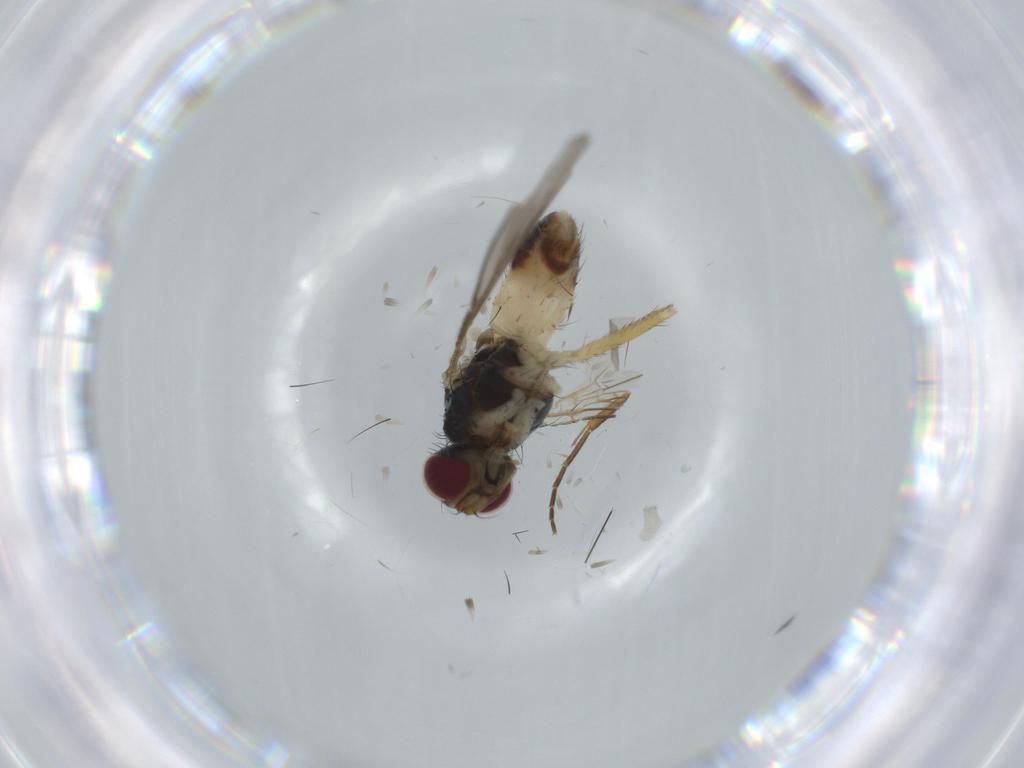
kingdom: Animalia
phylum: Arthropoda
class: Insecta
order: Diptera
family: Muscidae
